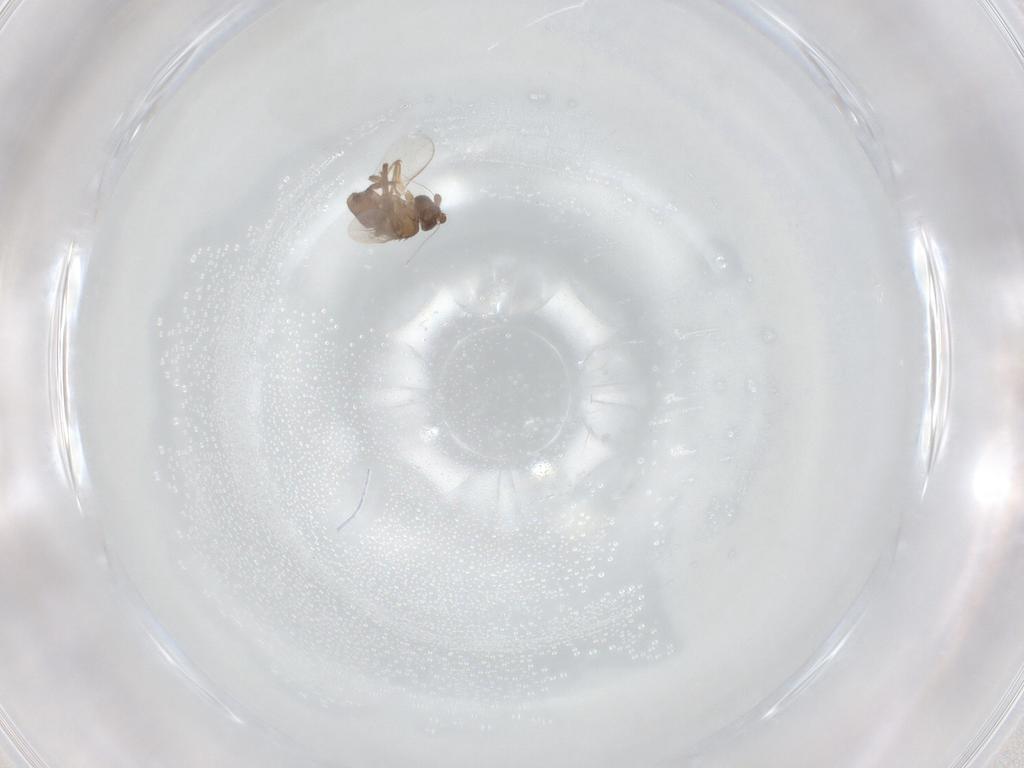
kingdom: Animalia
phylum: Arthropoda
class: Insecta
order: Diptera
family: Sphaeroceridae
